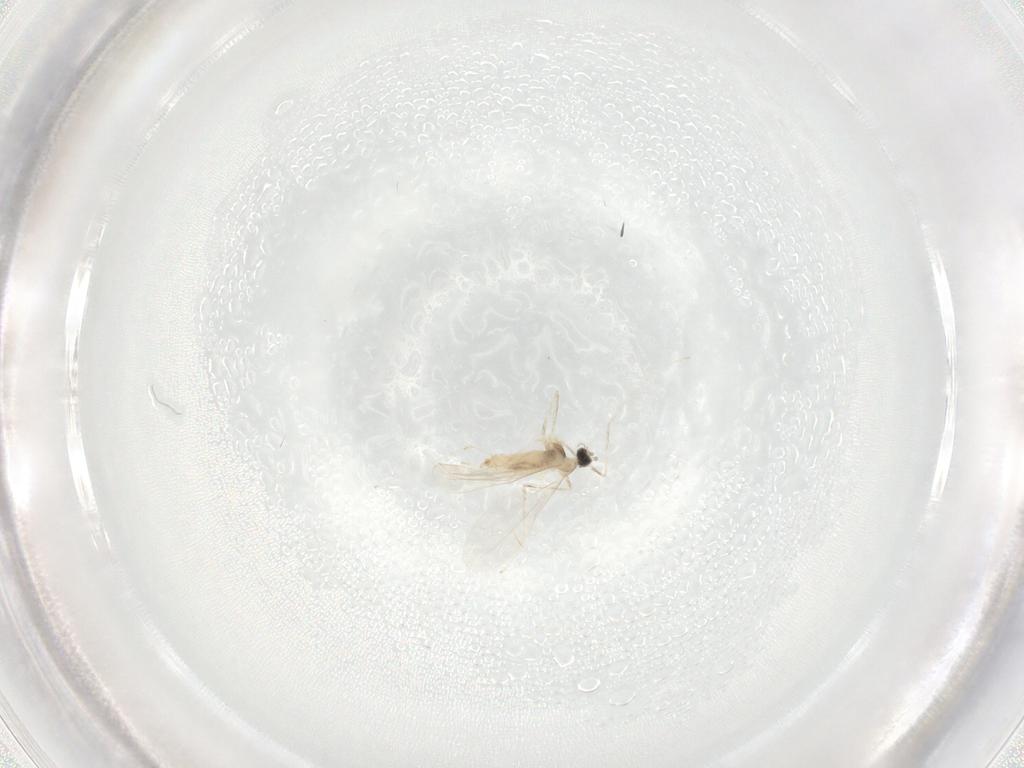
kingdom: Animalia
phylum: Arthropoda
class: Insecta
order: Diptera
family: Cecidomyiidae
